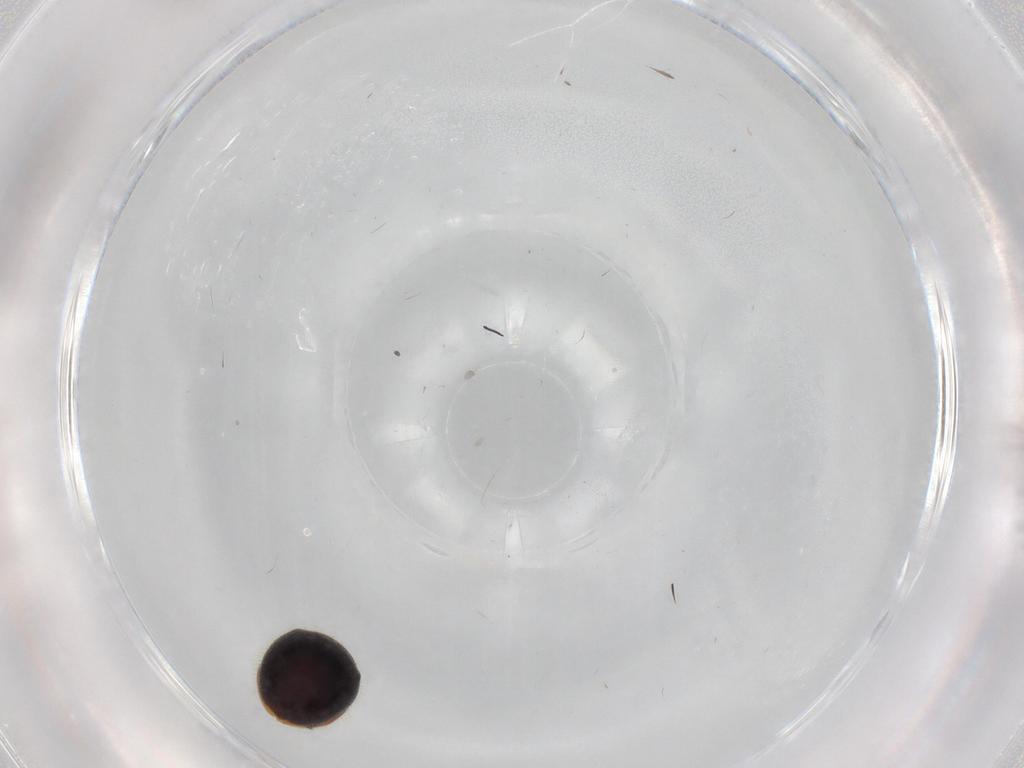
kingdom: Animalia
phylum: Arthropoda
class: Insecta
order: Coleoptera
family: Coccinellidae
